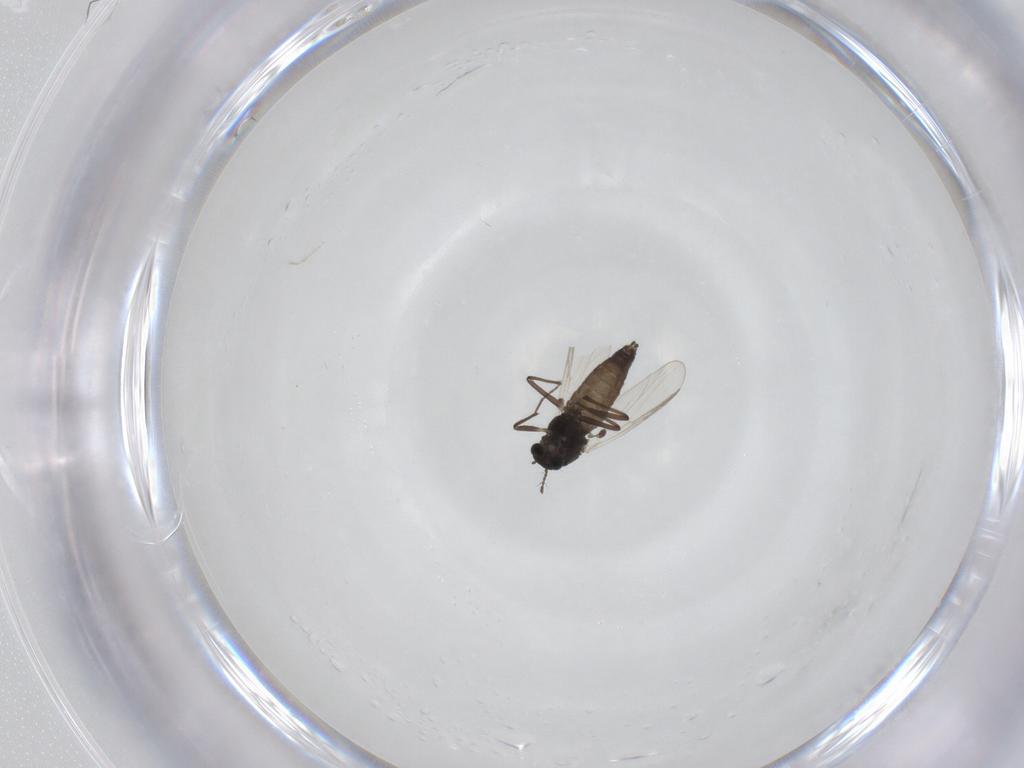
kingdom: Animalia
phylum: Arthropoda
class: Insecta
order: Diptera
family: Chironomidae
